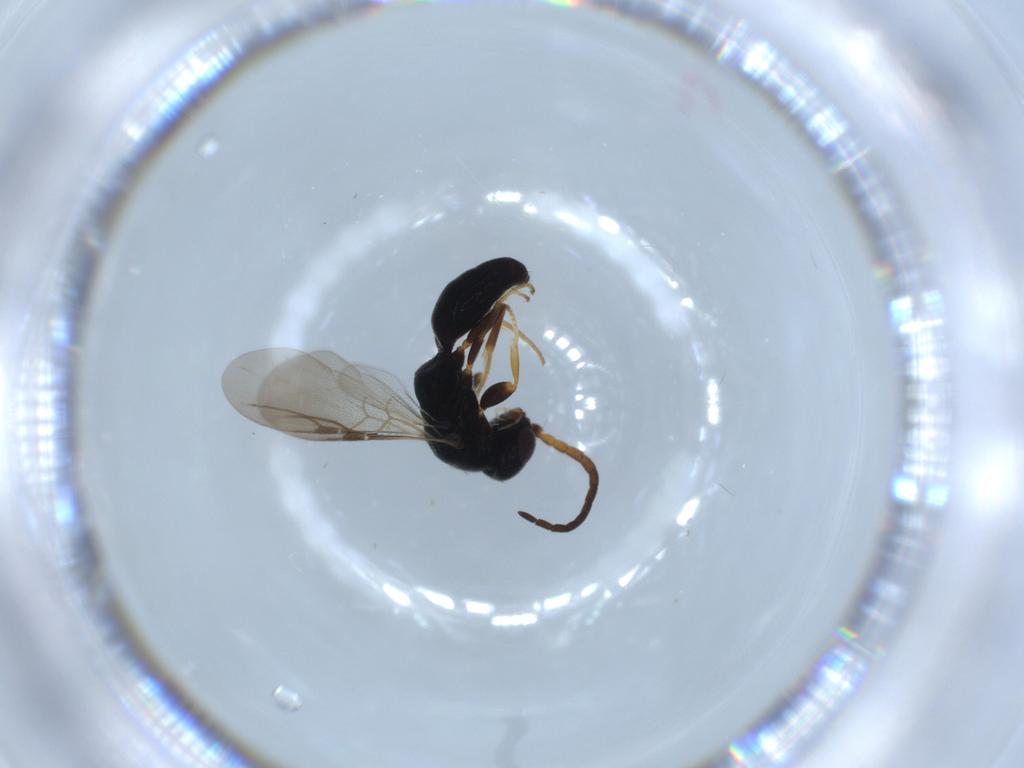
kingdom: Animalia
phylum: Arthropoda
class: Insecta
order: Hymenoptera
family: Bethylidae
